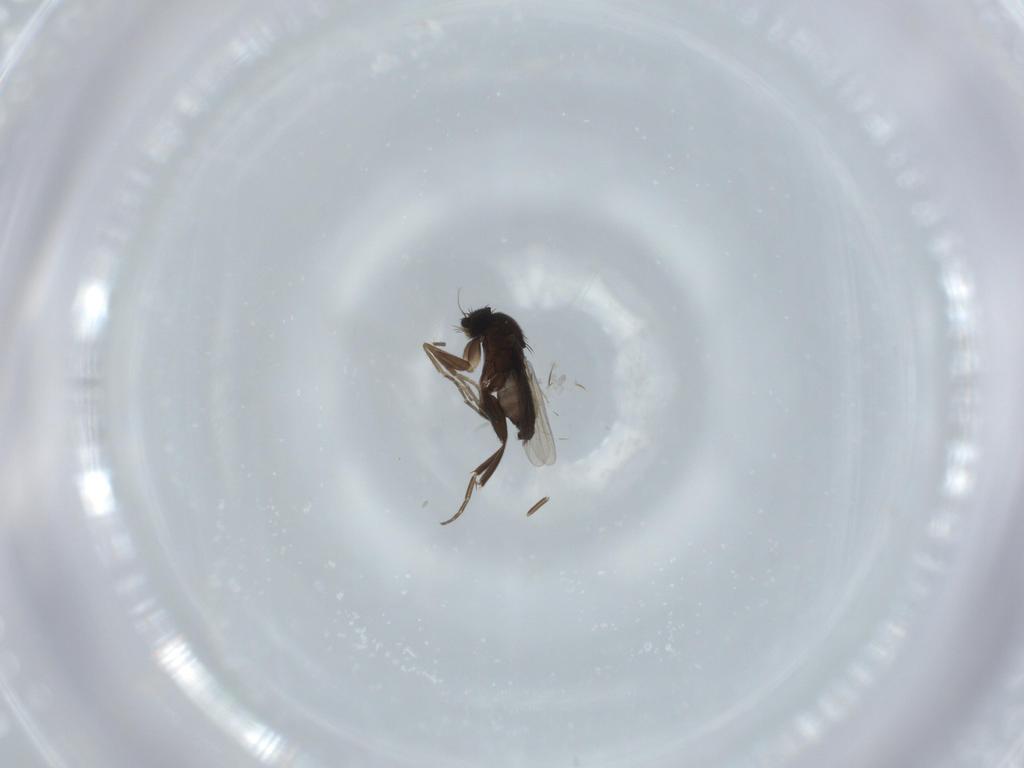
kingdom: Animalia
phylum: Arthropoda
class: Insecta
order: Diptera
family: Phoridae
